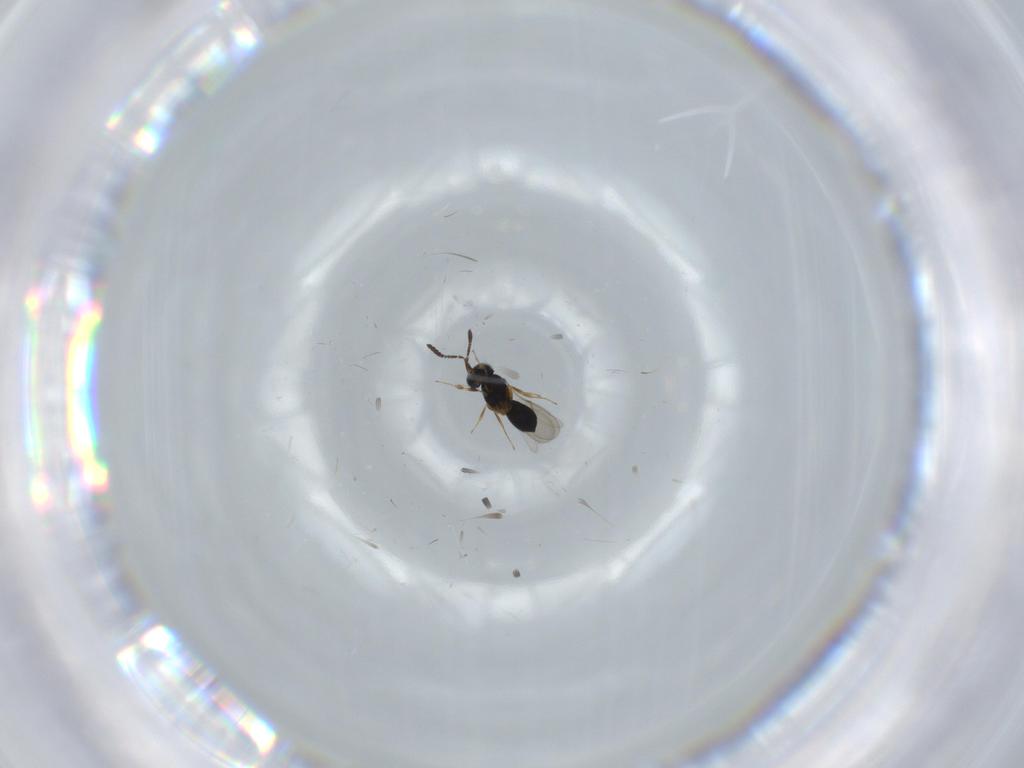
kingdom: Animalia
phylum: Arthropoda
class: Insecta
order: Hymenoptera
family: Scelionidae
